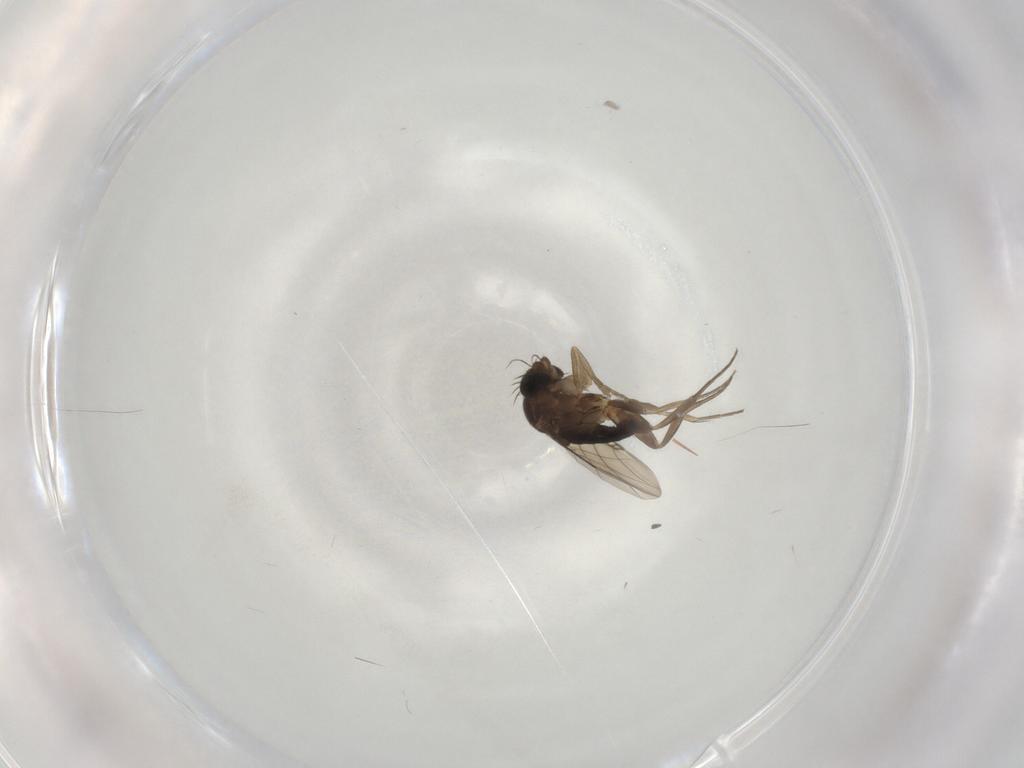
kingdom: Animalia
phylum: Arthropoda
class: Insecta
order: Diptera
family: Phoridae
